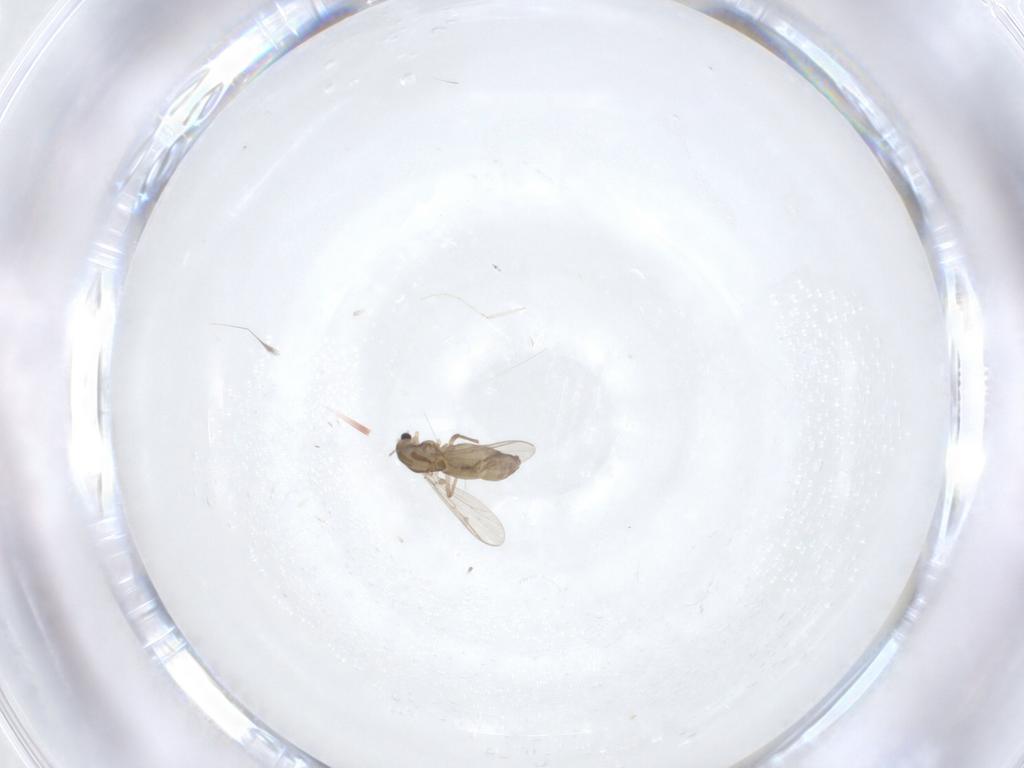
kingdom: Animalia
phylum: Arthropoda
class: Insecta
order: Diptera
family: Chironomidae
